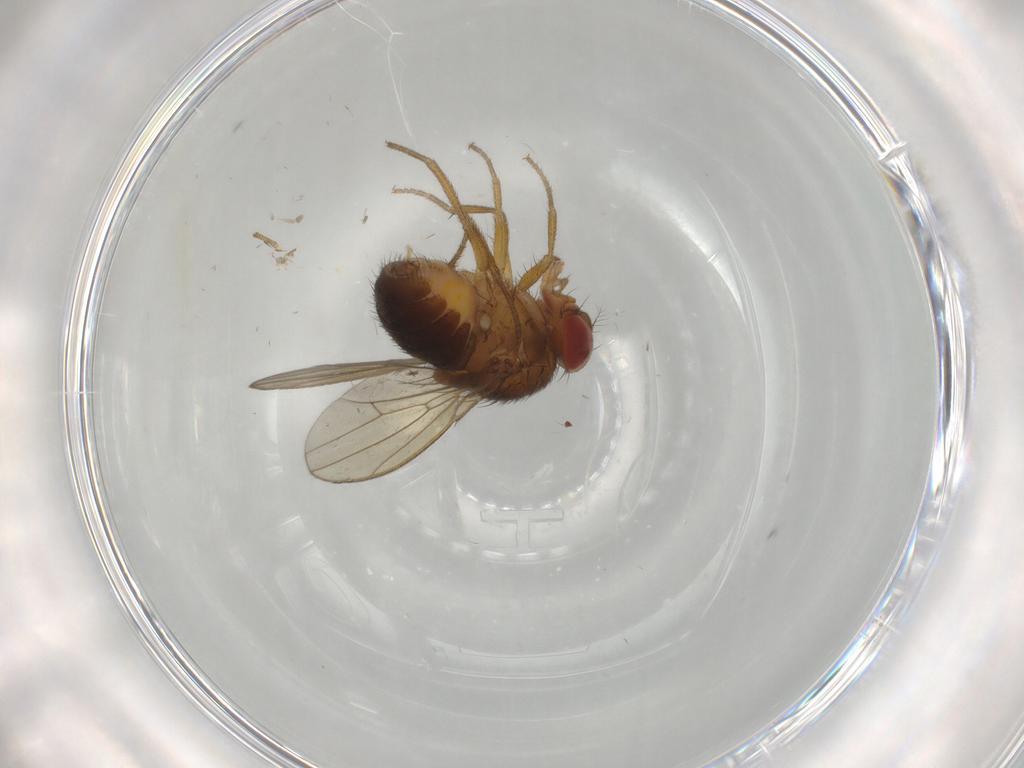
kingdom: Animalia
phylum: Arthropoda
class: Insecta
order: Diptera
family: Drosophilidae
